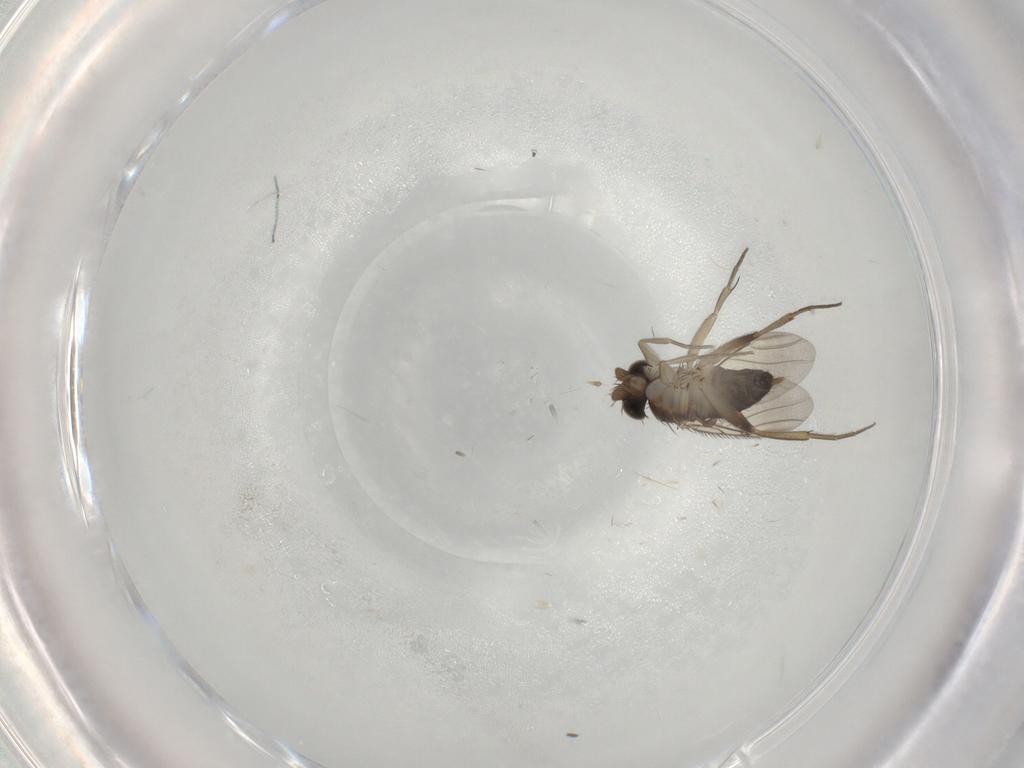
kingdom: Animalia
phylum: Arthropoda
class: Insecta
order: Diptera
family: Phoridae
